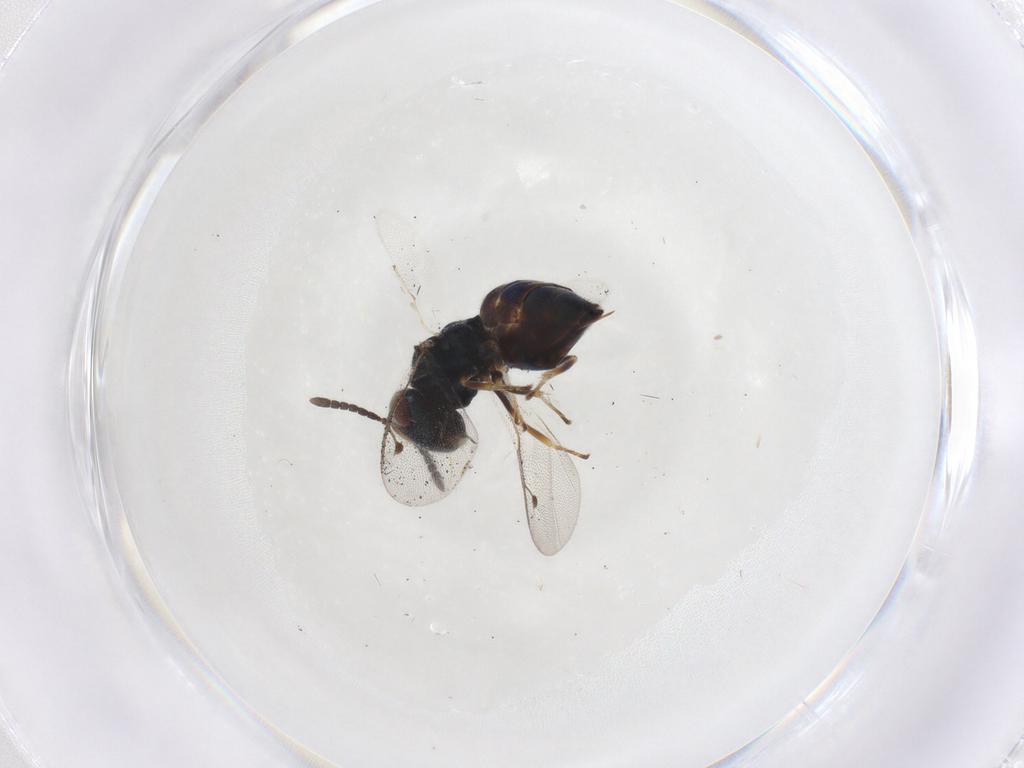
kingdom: Animalia
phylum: Arthropoda
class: Insecta
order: Hymenoptera
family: Pteromalidae
